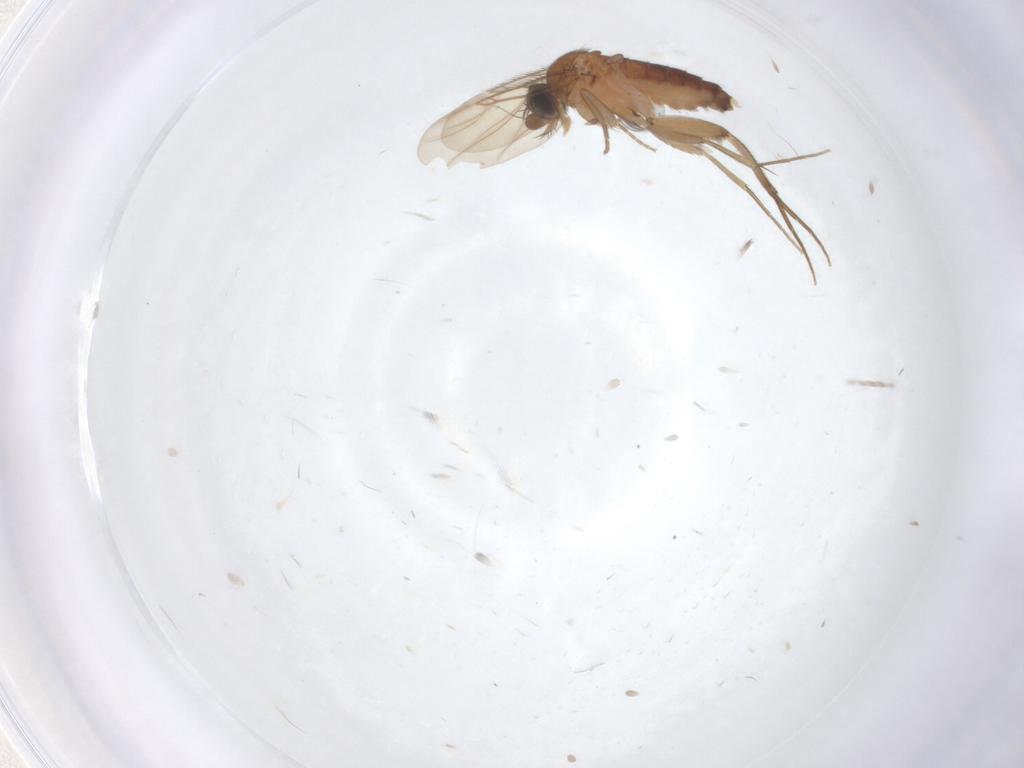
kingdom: Animalia
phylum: Arthropoda
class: Insecta
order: Diptera
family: Phoridae
